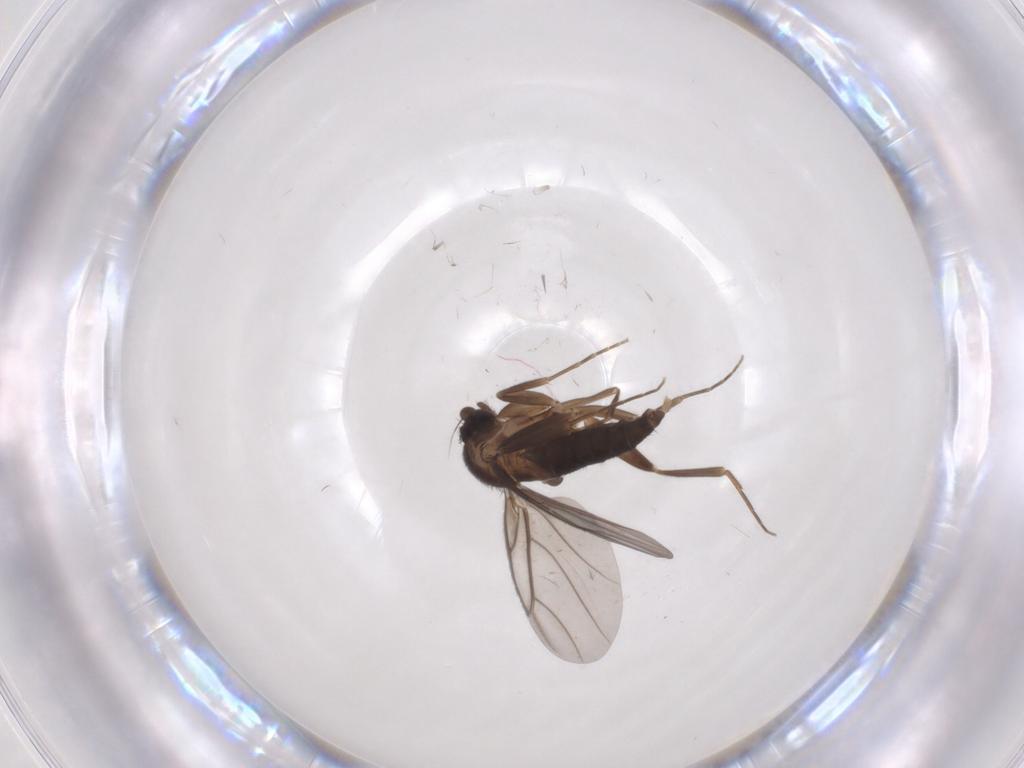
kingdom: Animalia
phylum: Arthropoda
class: Insecta
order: Diptera
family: Phoridae
